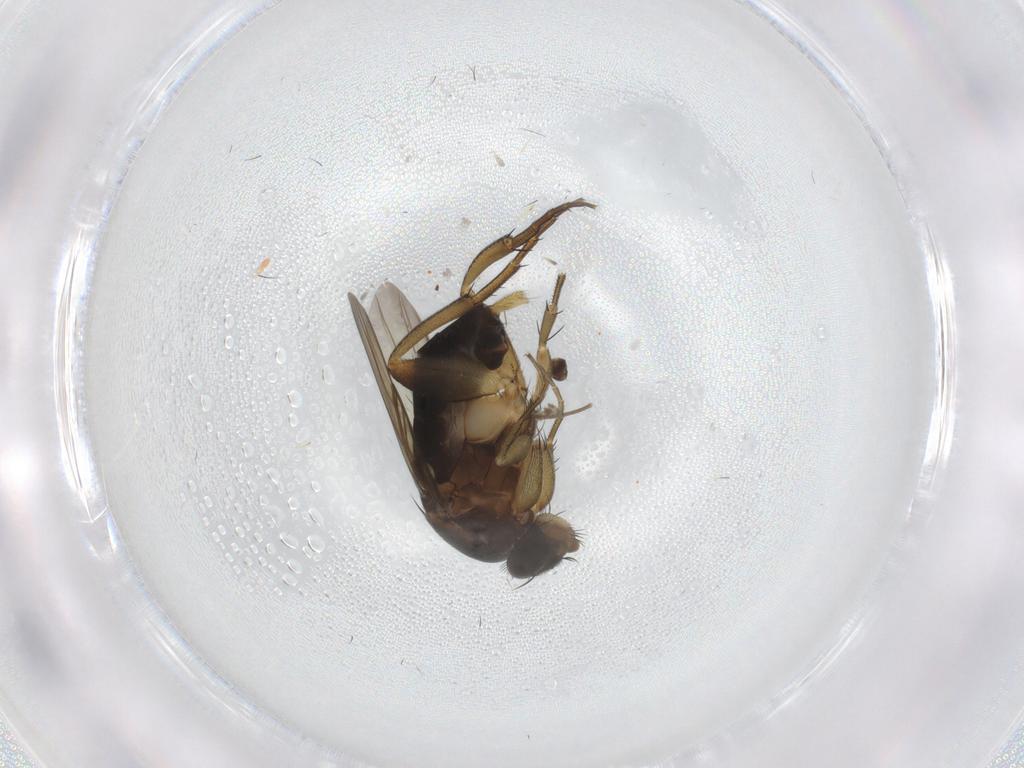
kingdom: Animalia
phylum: Arthropoda
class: Insecta
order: Diptera
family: Phoridae
